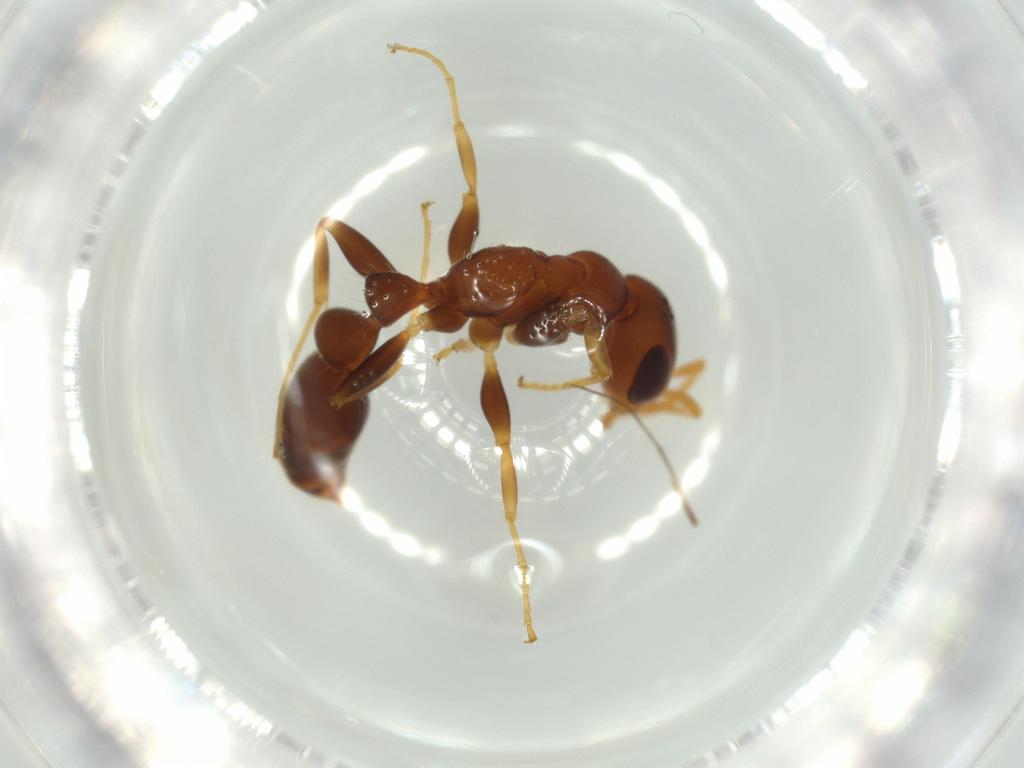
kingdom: Animalia
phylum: Arthropoda
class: Insecta
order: Hymenoptera
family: Formicidae
